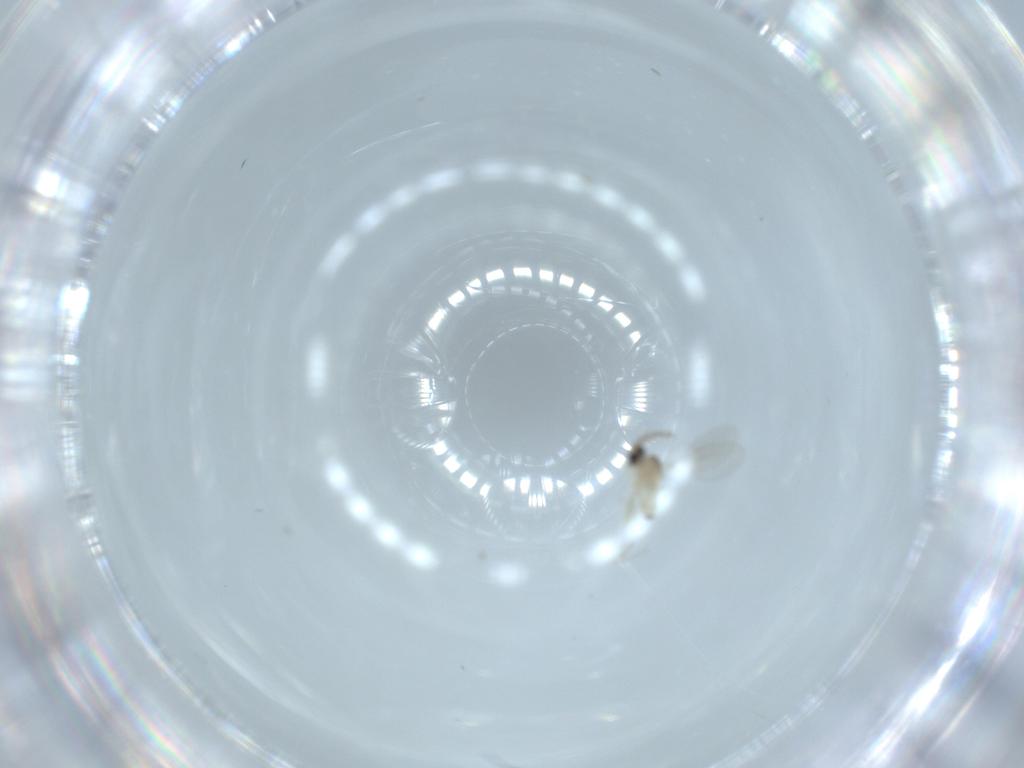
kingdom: Animalia
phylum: Arthropoda
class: Insecta
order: Diptera
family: Cecidomyiidae
